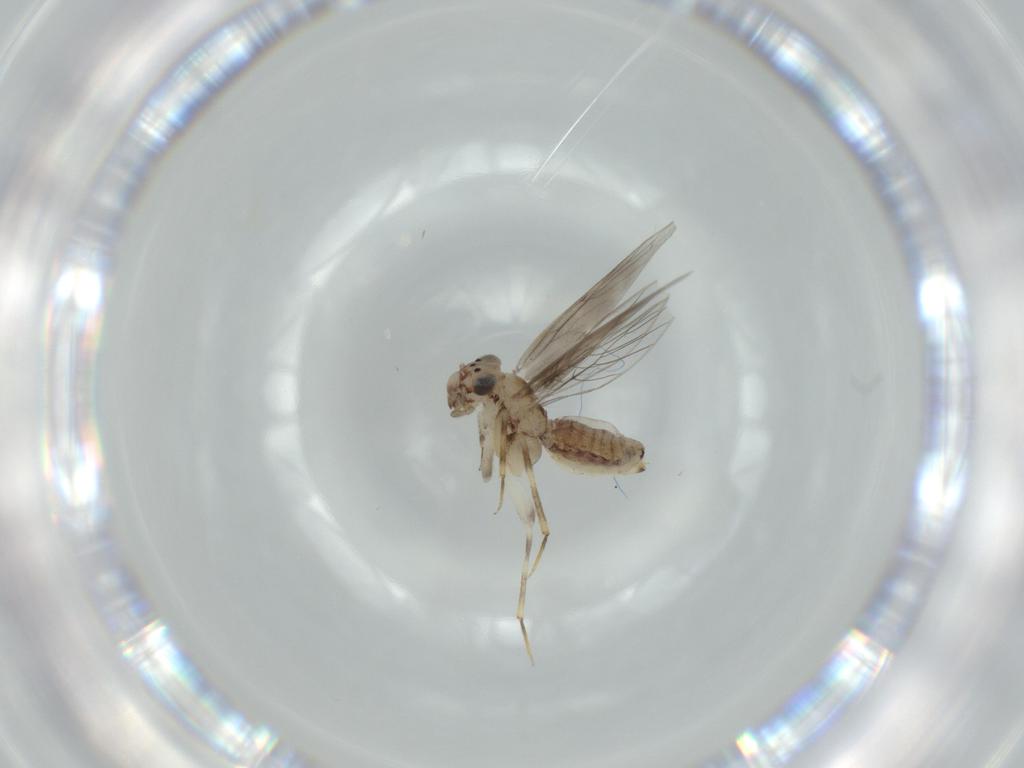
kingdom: Animalia
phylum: Arthropoda
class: Insecta
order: Psocodea
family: Lepidopsocidae
